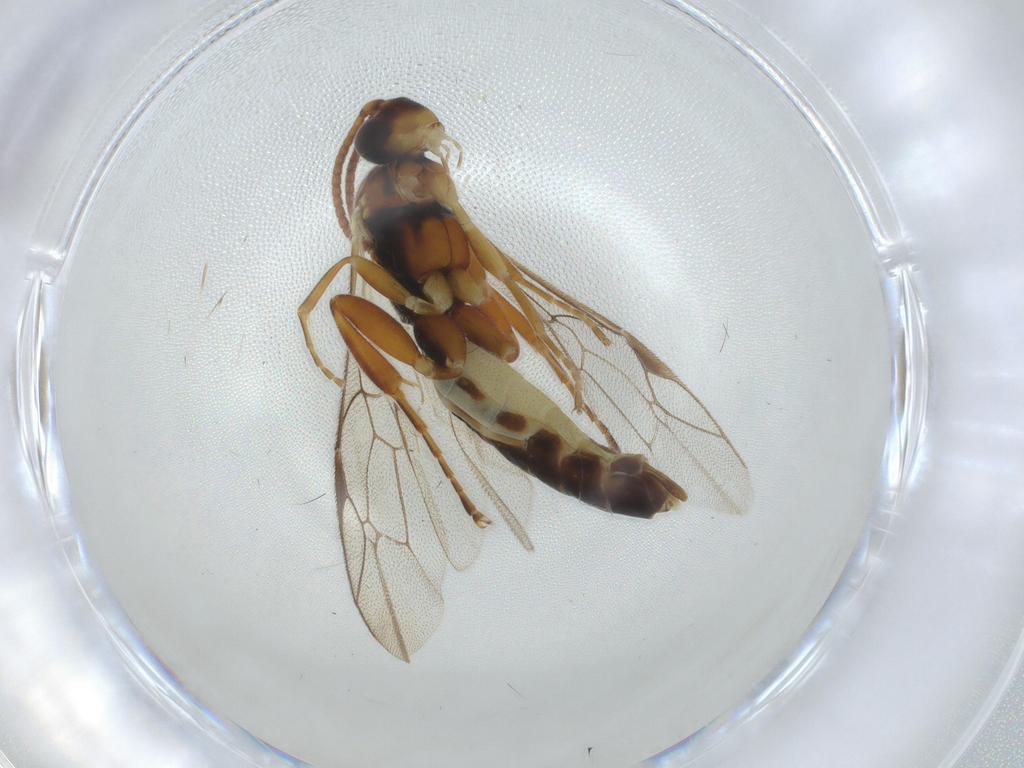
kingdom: Animalia
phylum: Arthropoda
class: Insecta
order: Hymenoptera
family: Ichneumonidae
